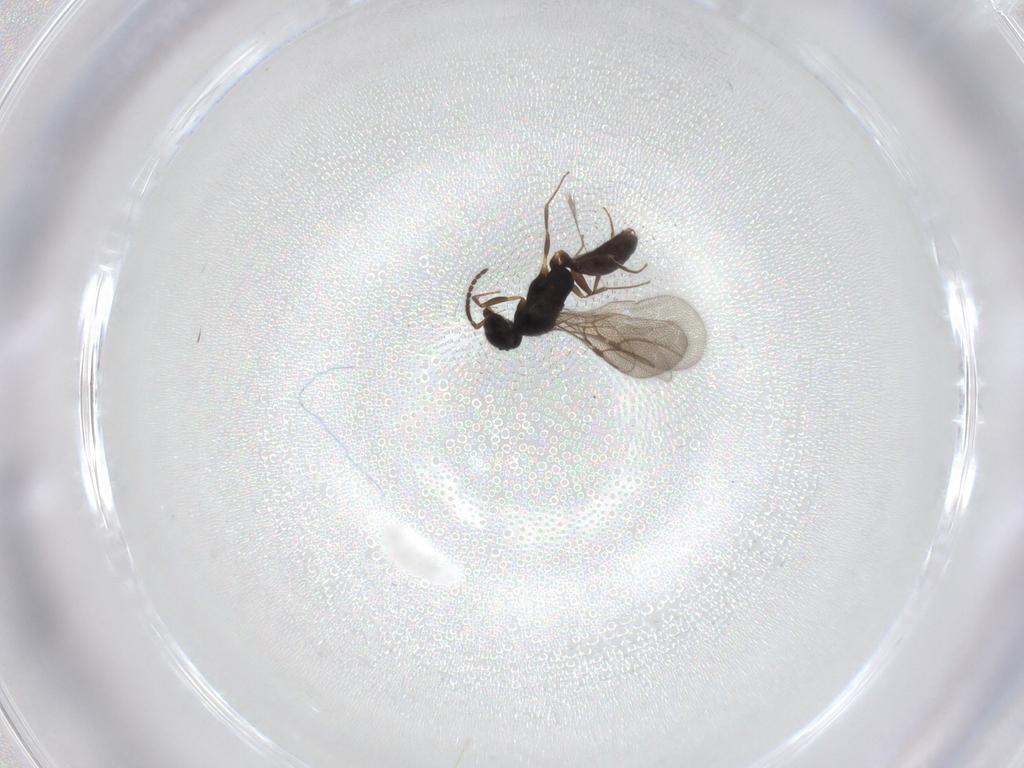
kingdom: Animalia
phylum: Arthropoda
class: Insecta
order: Hymenoptera
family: Bethylidae
